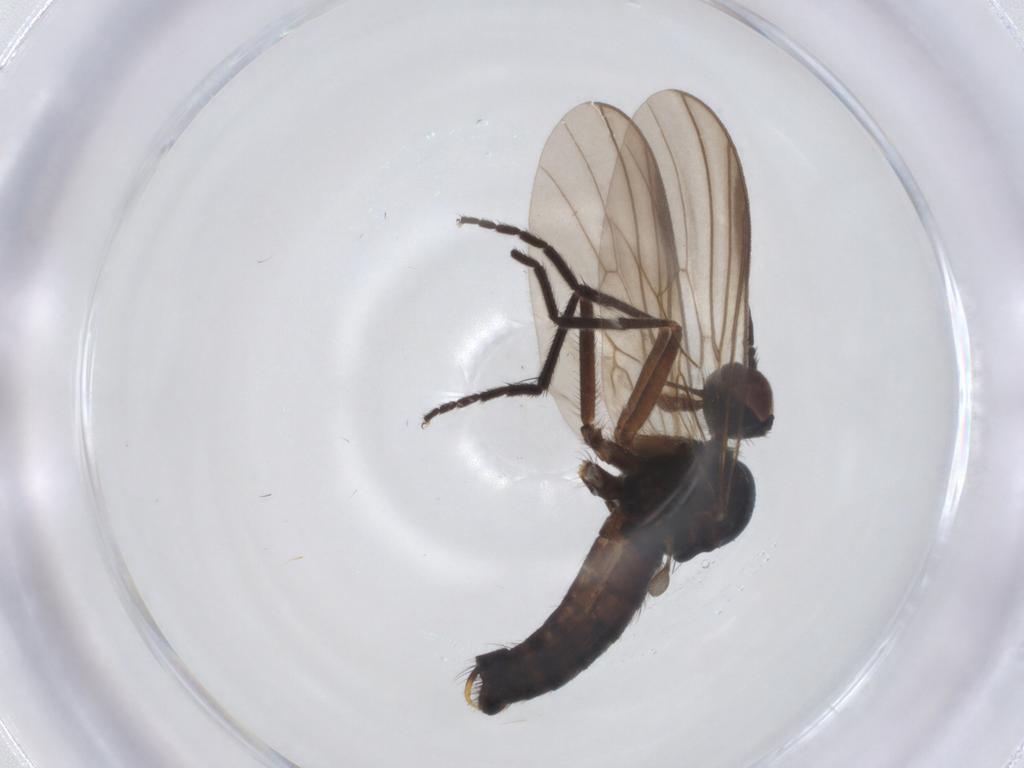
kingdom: Animalia
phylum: Arthropoda
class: Insecta
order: Diptera
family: Empididae
